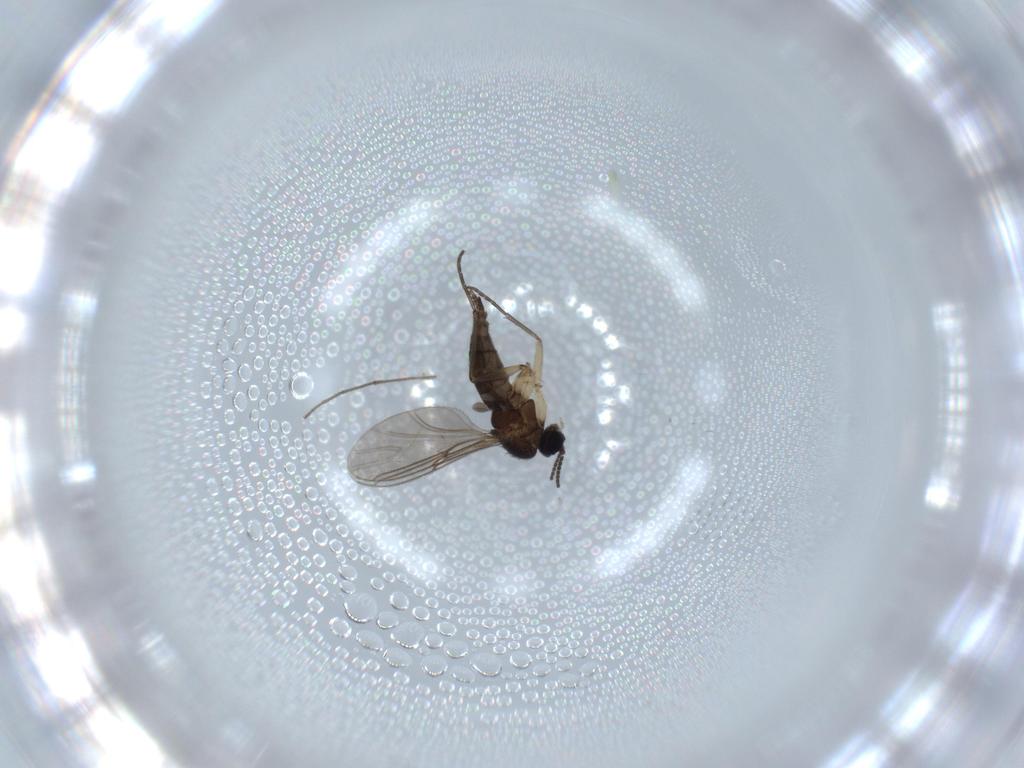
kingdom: Animalia
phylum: Arthropoda
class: Insecta
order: Diptera
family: Sciaridae
